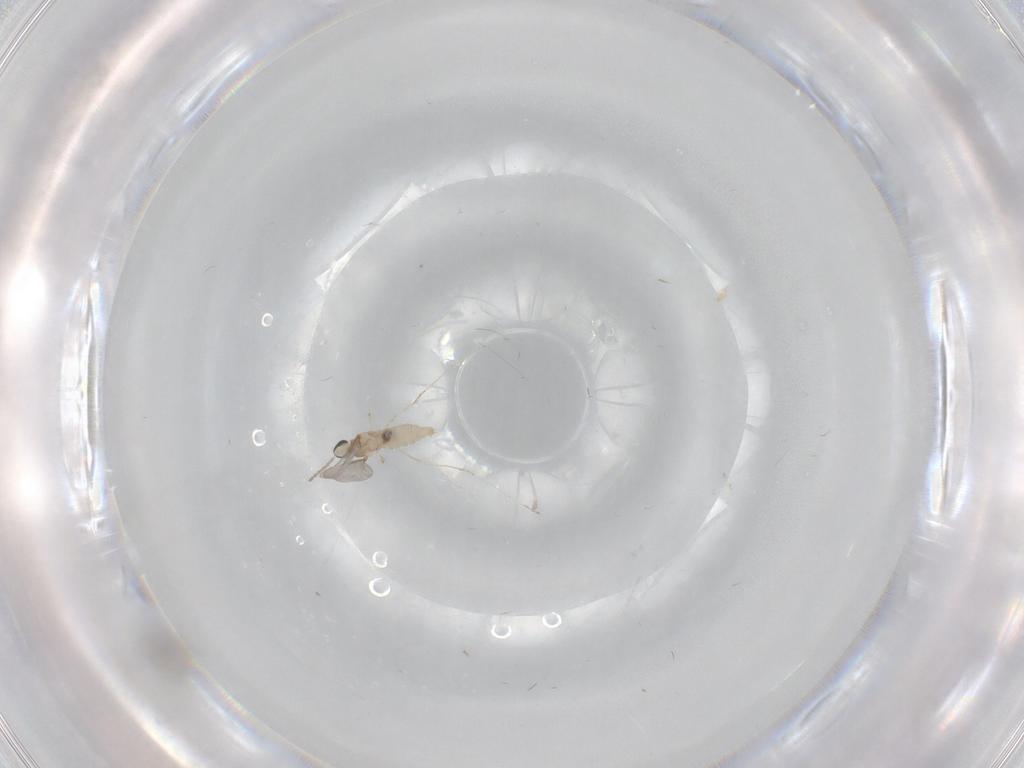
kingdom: Animalia
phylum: Arthropoda
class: Insecta
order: Diptera
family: Cecidomyiidae
